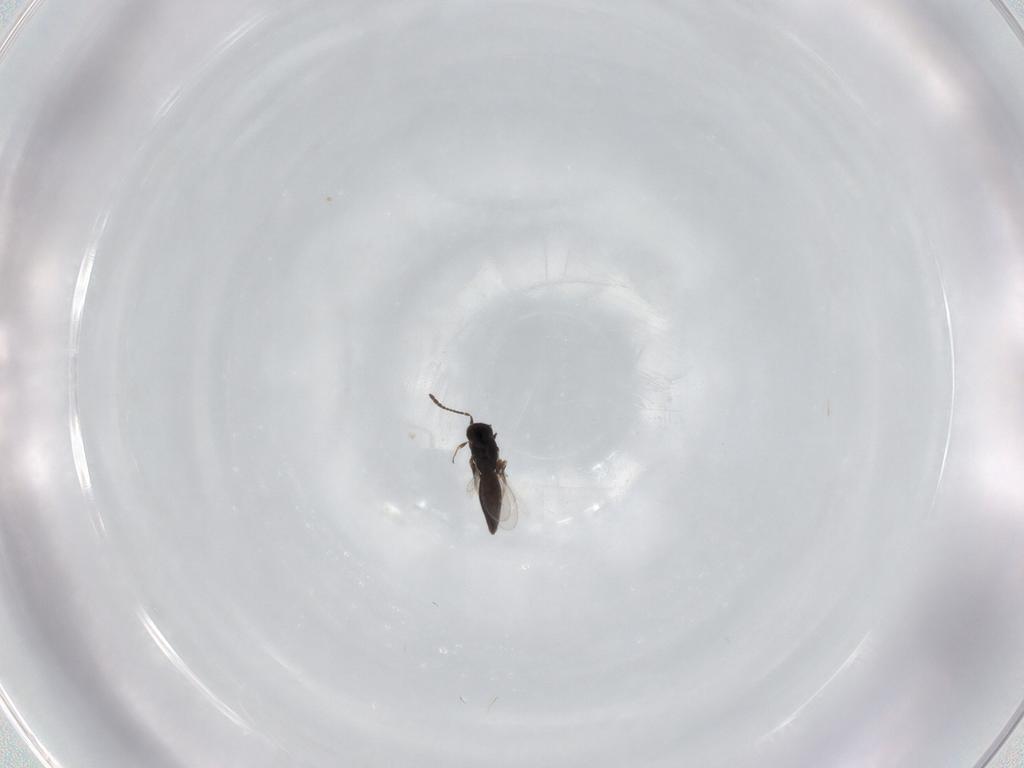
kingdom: Animalia
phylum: Arthropoda
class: Insecta
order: Hymenoptera
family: Scelionidae
